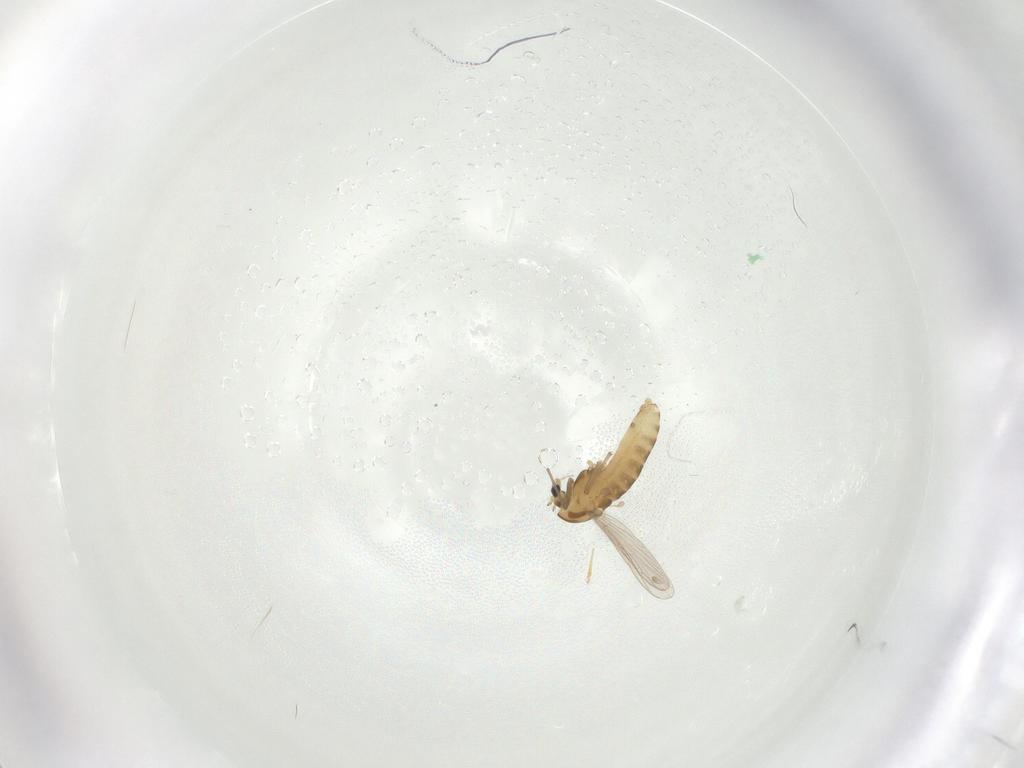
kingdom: Animalia
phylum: Arthropoda
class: Insecta
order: Diptera
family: Chironomidae
